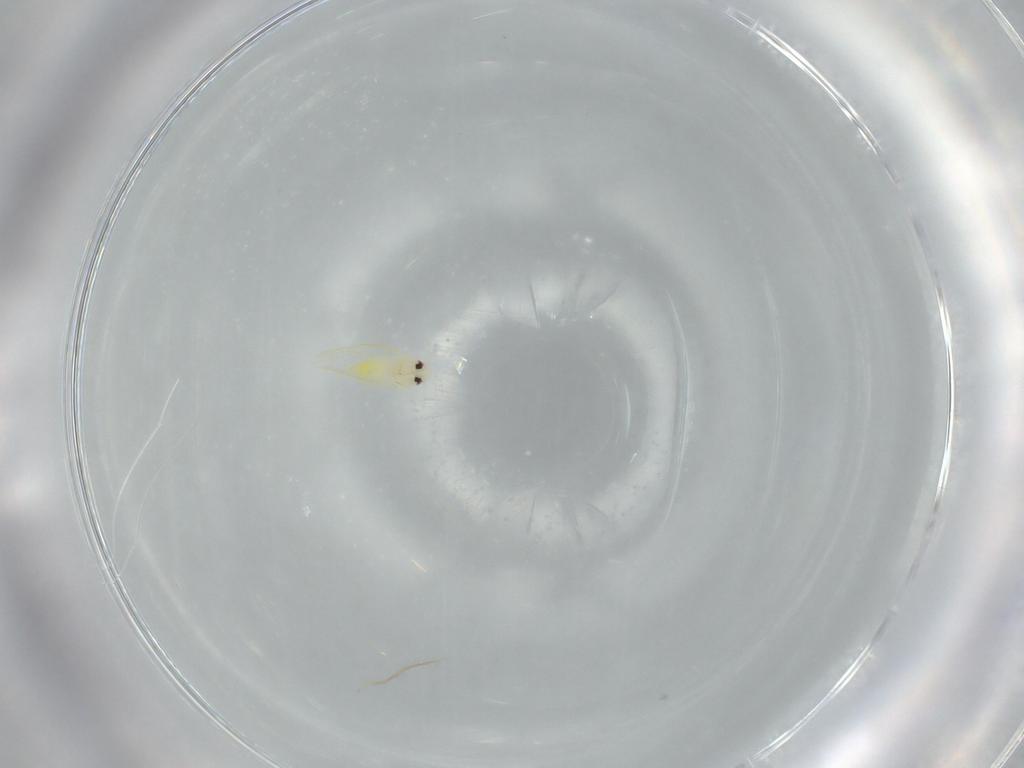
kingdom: Animalia
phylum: Arthropoda
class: Insecta
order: Hemiptera
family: Aleyrodidae
